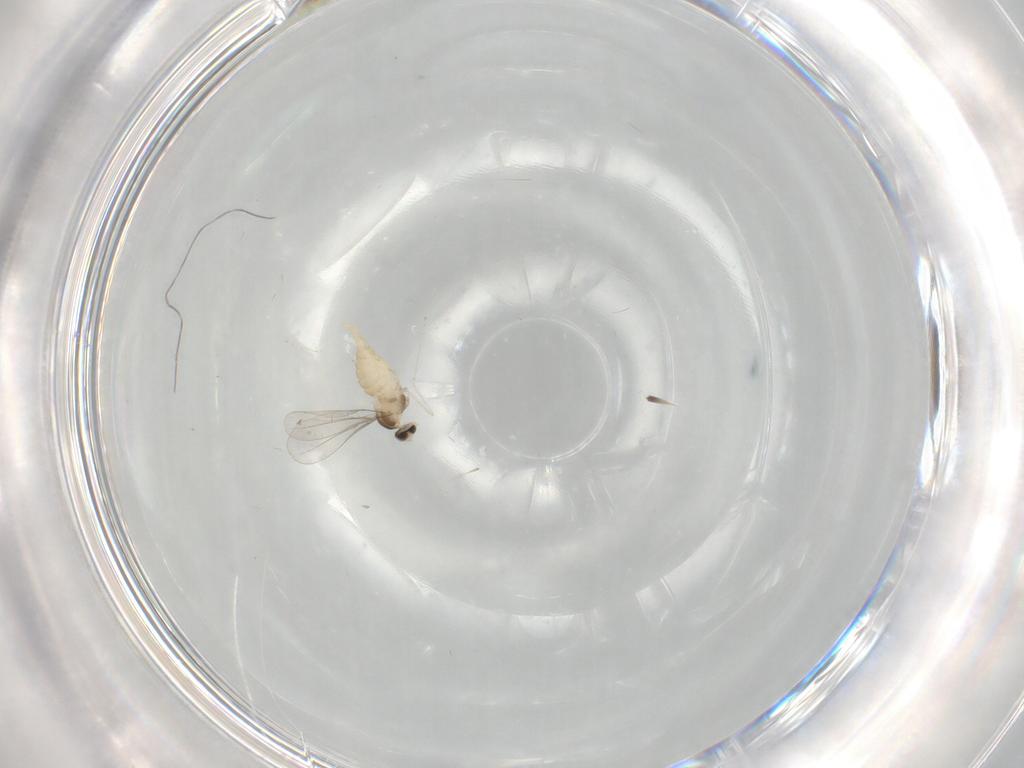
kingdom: Animalia
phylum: Arthropoda
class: Insecta
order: Diptera
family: Cecidomyiidae
